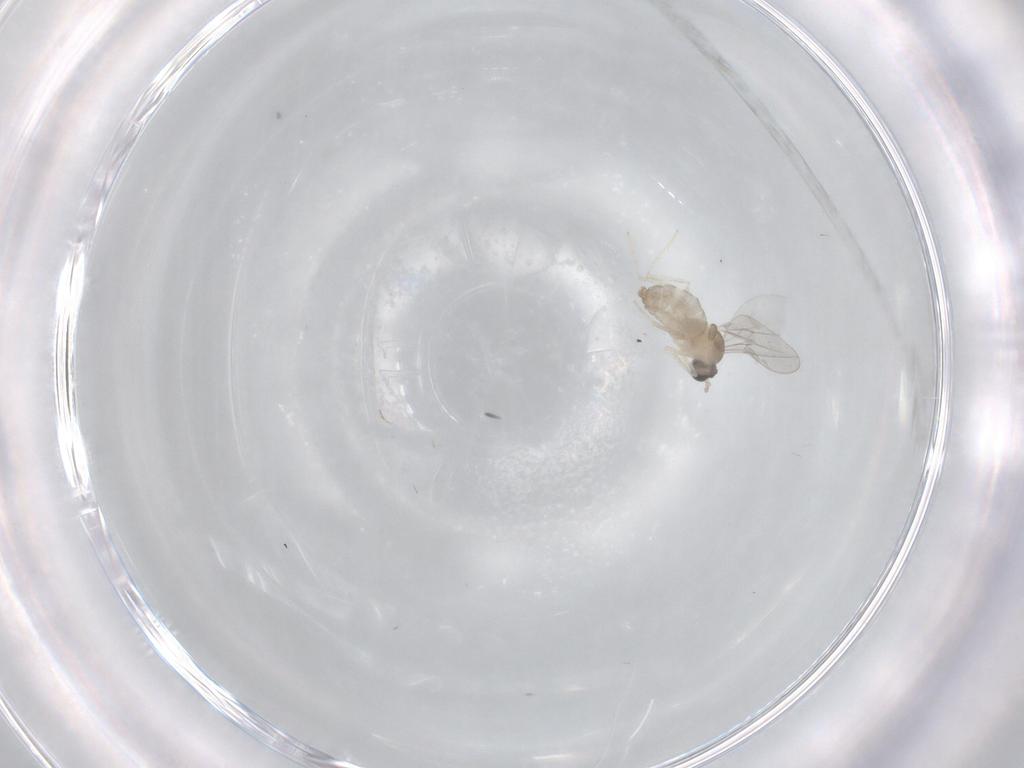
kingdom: Animalia
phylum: Arthropoda
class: Insecta
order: Diptera
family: Cecidomyiidae
